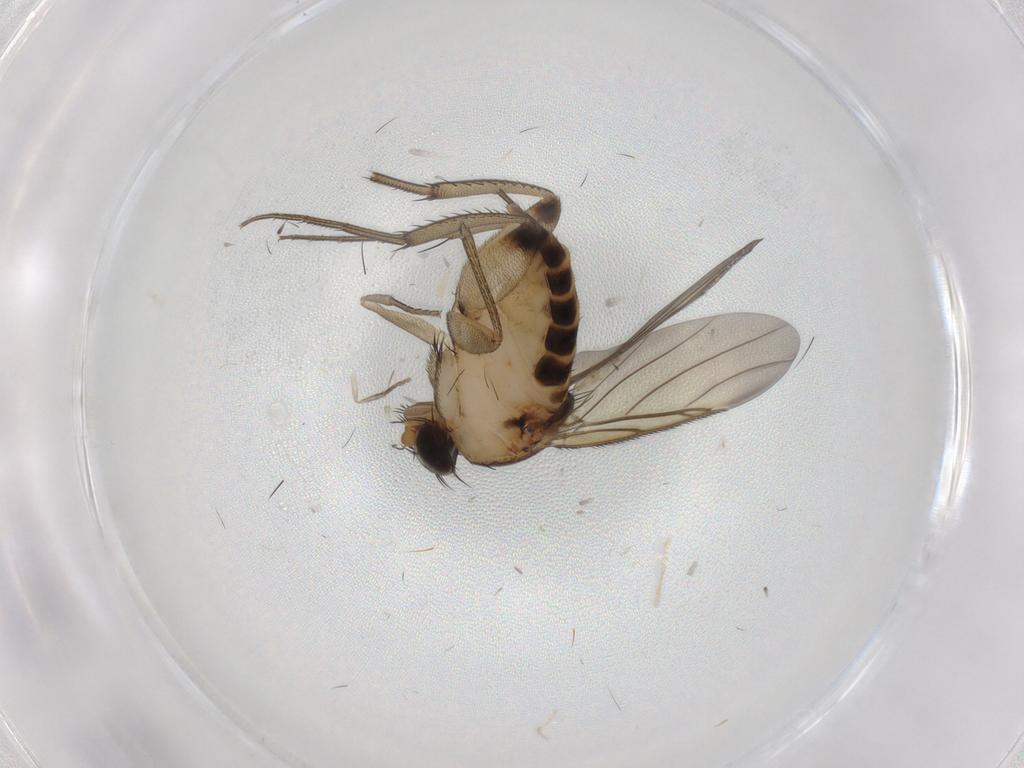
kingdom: Animalia
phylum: Arthropoda
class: Insecta
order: Diptera
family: Phoridae
